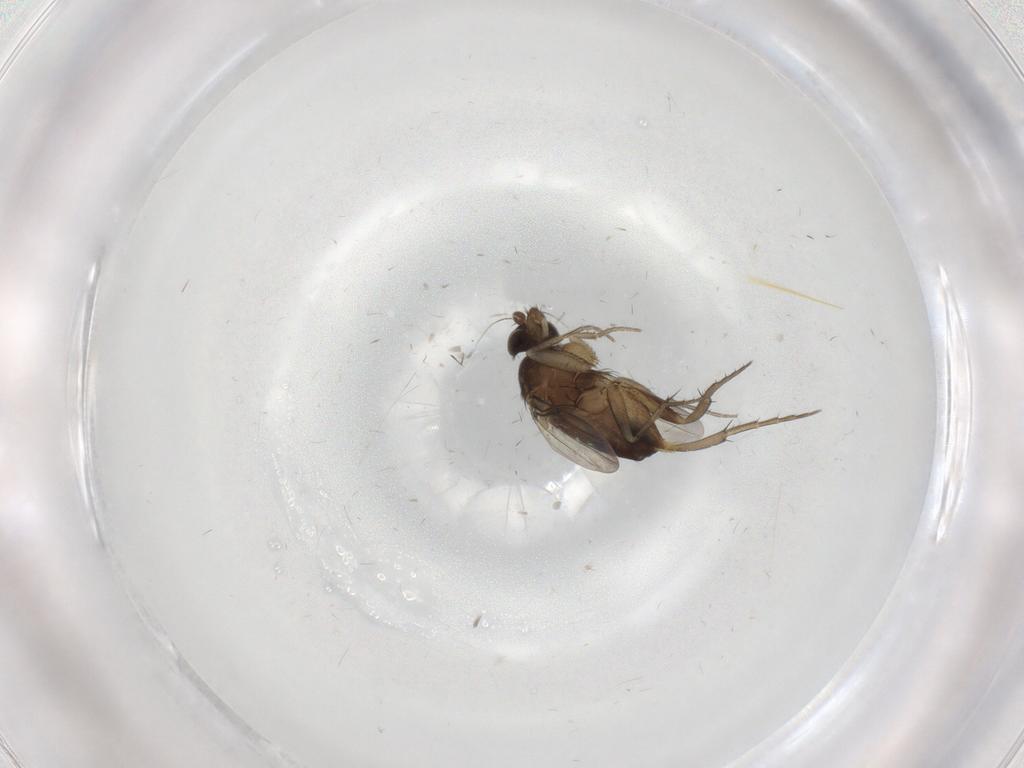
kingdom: Animalia
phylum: Arthropoda
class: Insecta
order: Diptera
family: Phoridae
